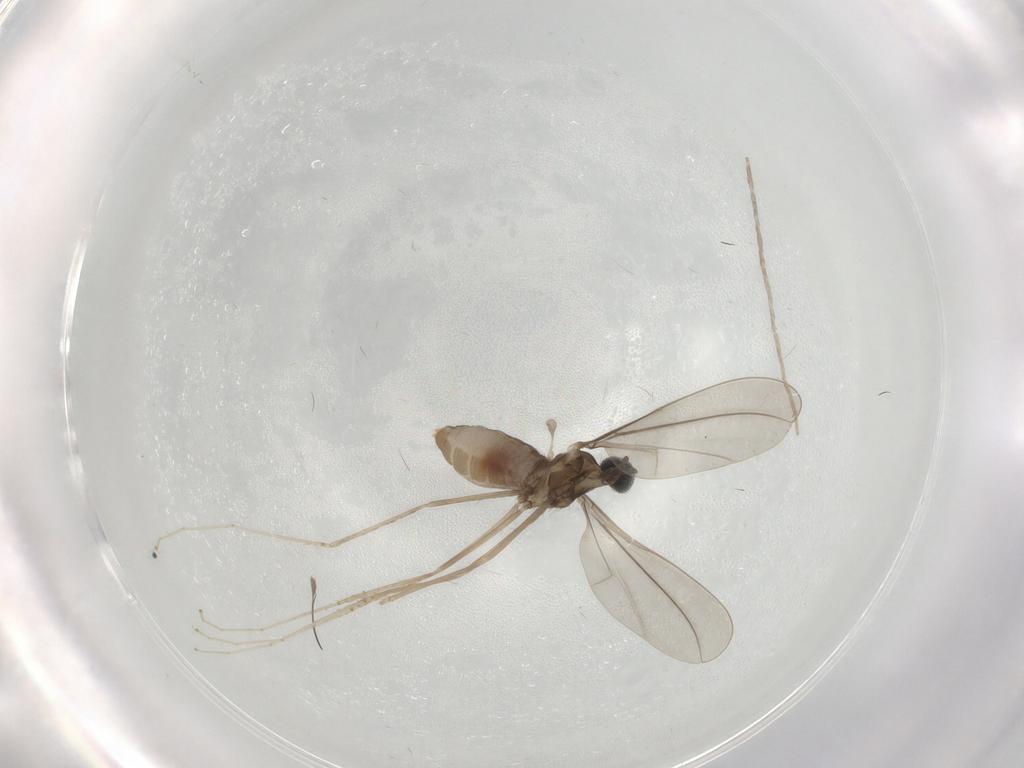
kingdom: Animalia
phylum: Arthropoda
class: Insecta
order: Diptera
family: Cecidomyiidae
